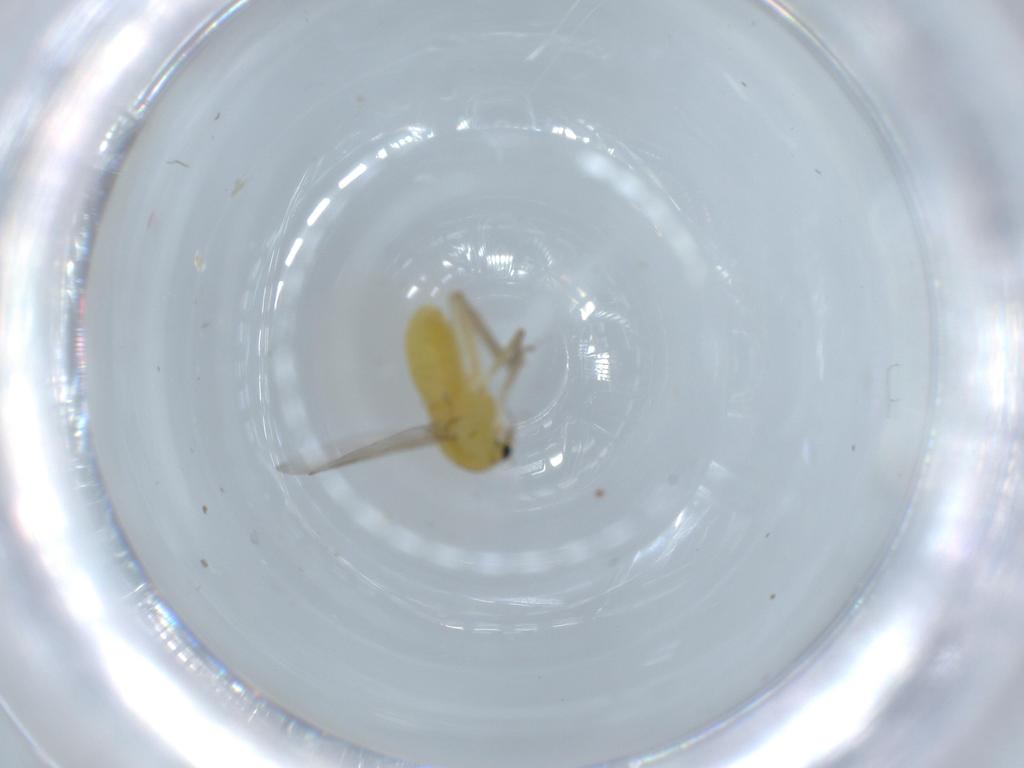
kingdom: Animalia
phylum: Arthropoda
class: Insecta
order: Diptera
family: Chironomidae
